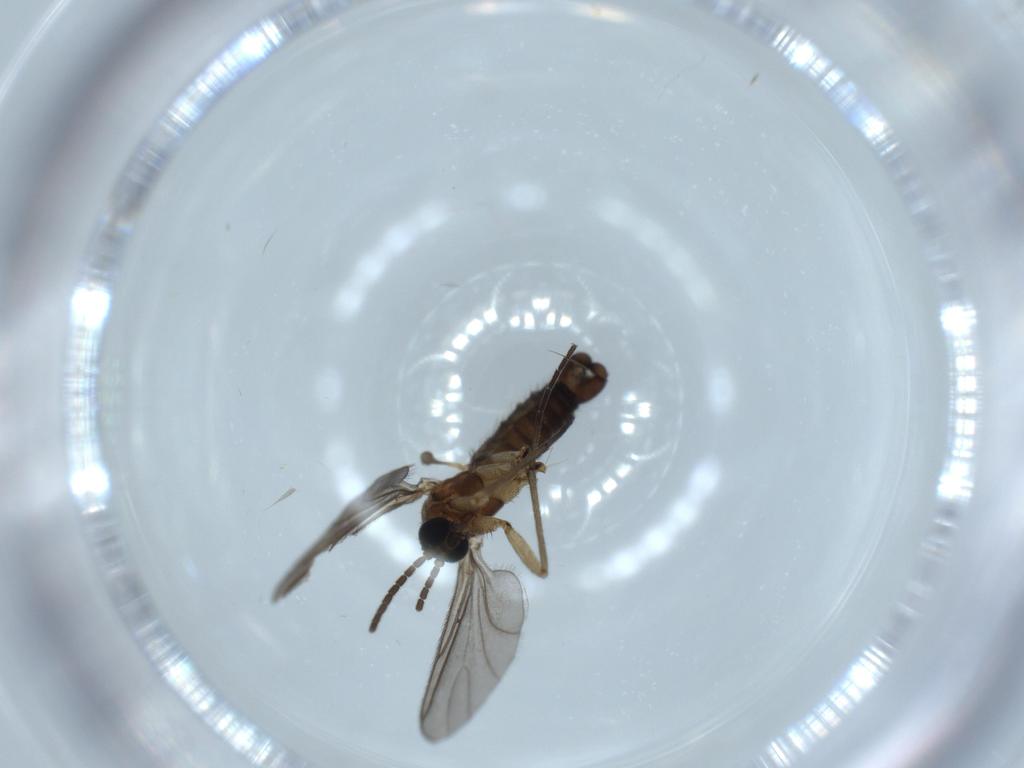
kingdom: Animalia
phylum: Arthropoda
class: Insecta
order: Diptera
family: Sciaridae
